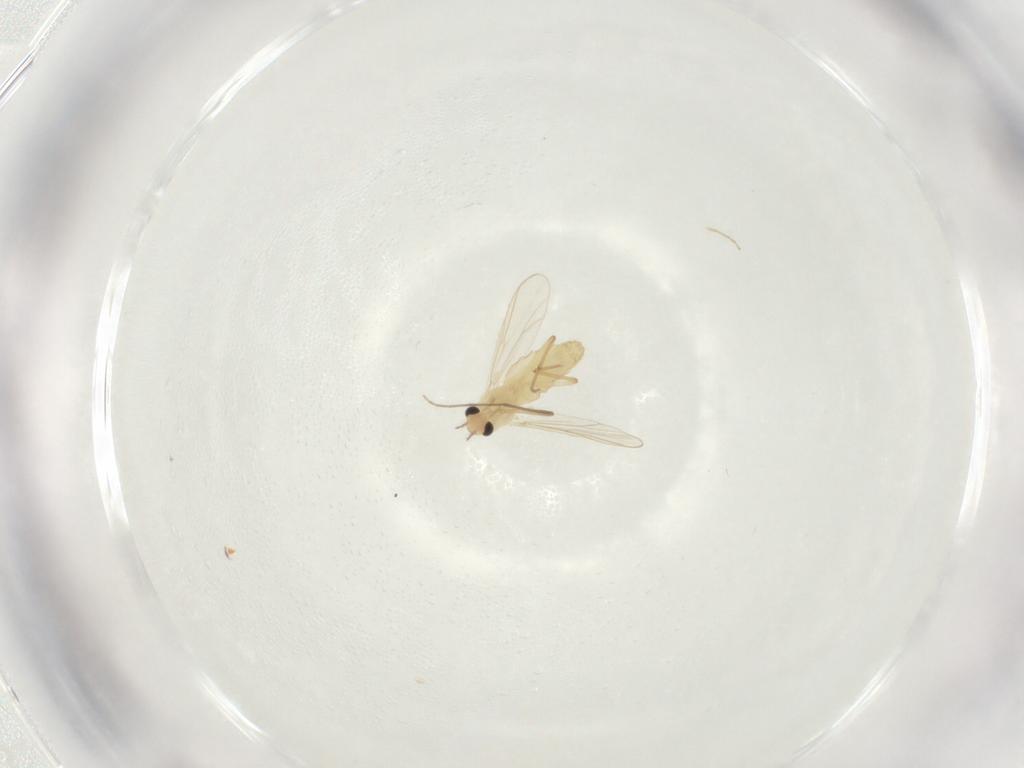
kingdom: Animalia
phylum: Arthropoda
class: Insecta
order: Diptera
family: Chironomidae
